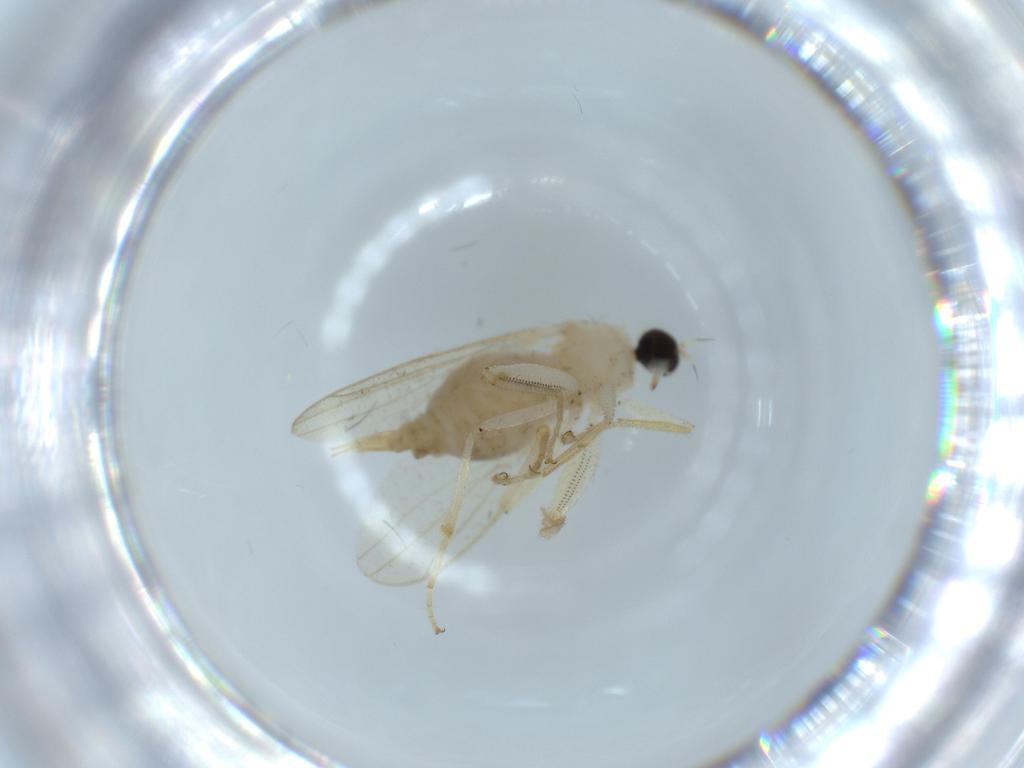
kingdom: Animalia
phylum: Arthropoda
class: Insecta
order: Diptera
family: Hybotidae
